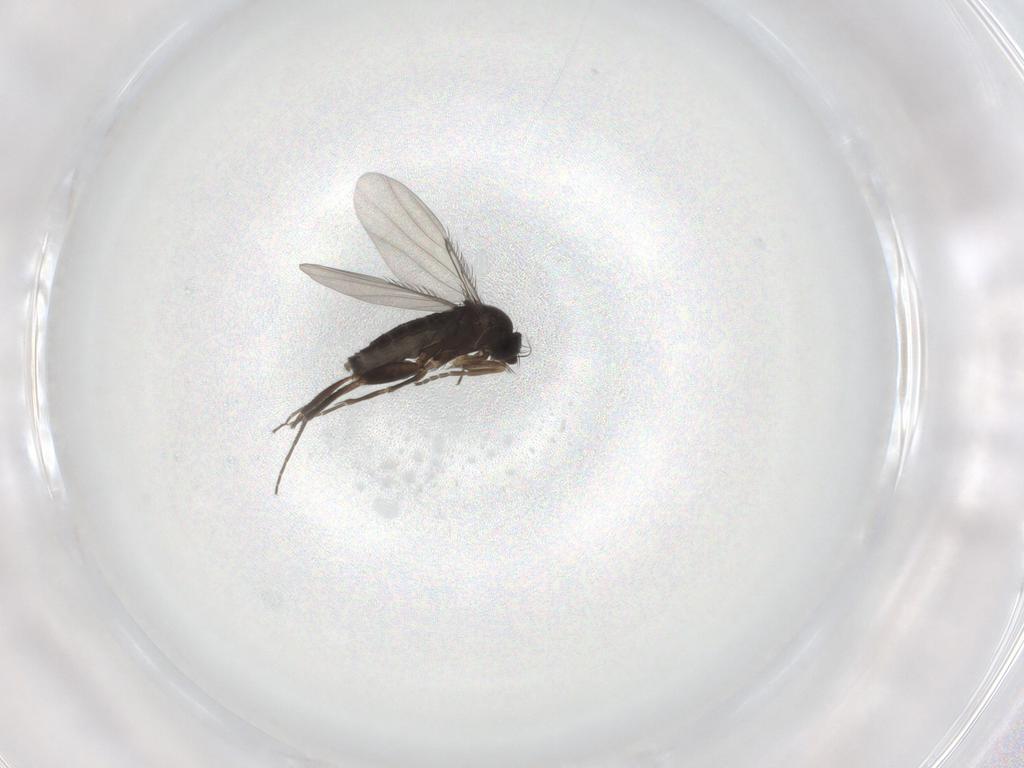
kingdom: Animalia
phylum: Arthropoda
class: Insecta
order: Diptera
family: Phoridae
